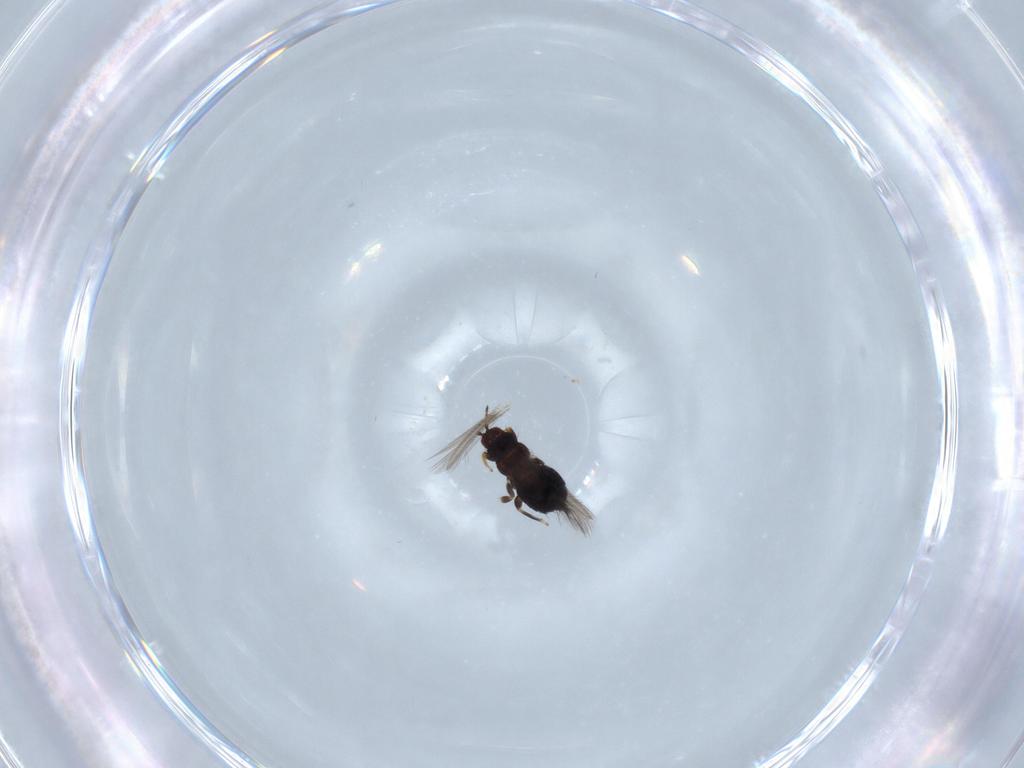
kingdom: Animalia
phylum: Arthropoda
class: Insecta
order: Thysanoptera
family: Thripidae
